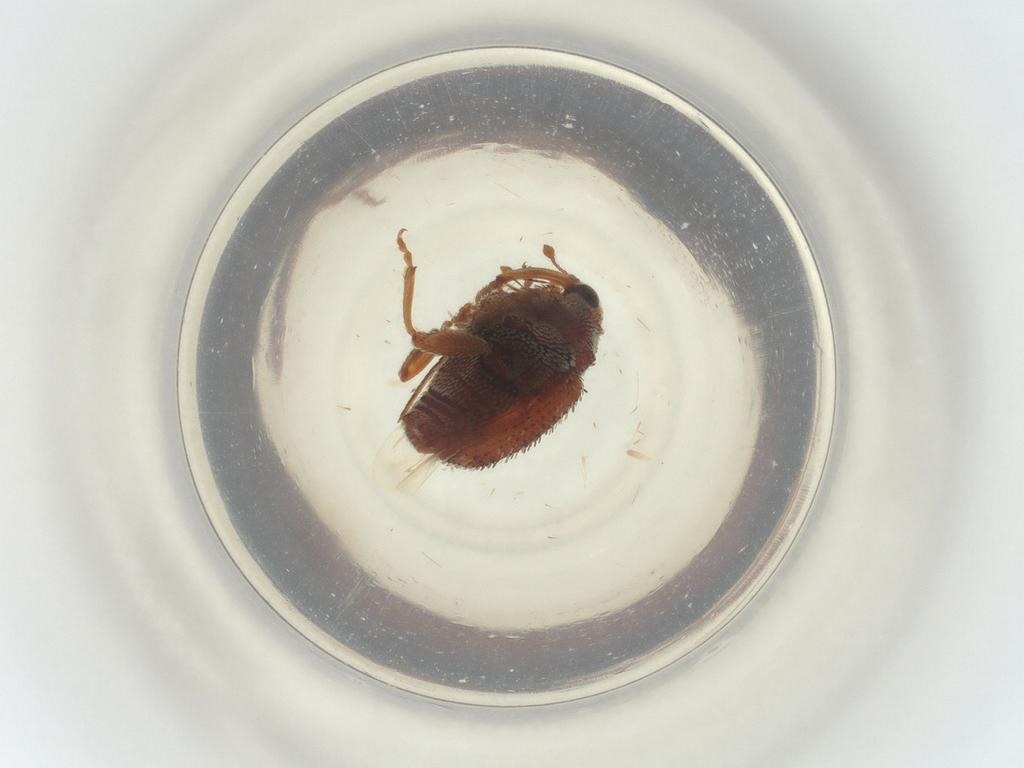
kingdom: Animalia
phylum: Arthropoda
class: Insecta
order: Lepidoptera
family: Gelechiidae
